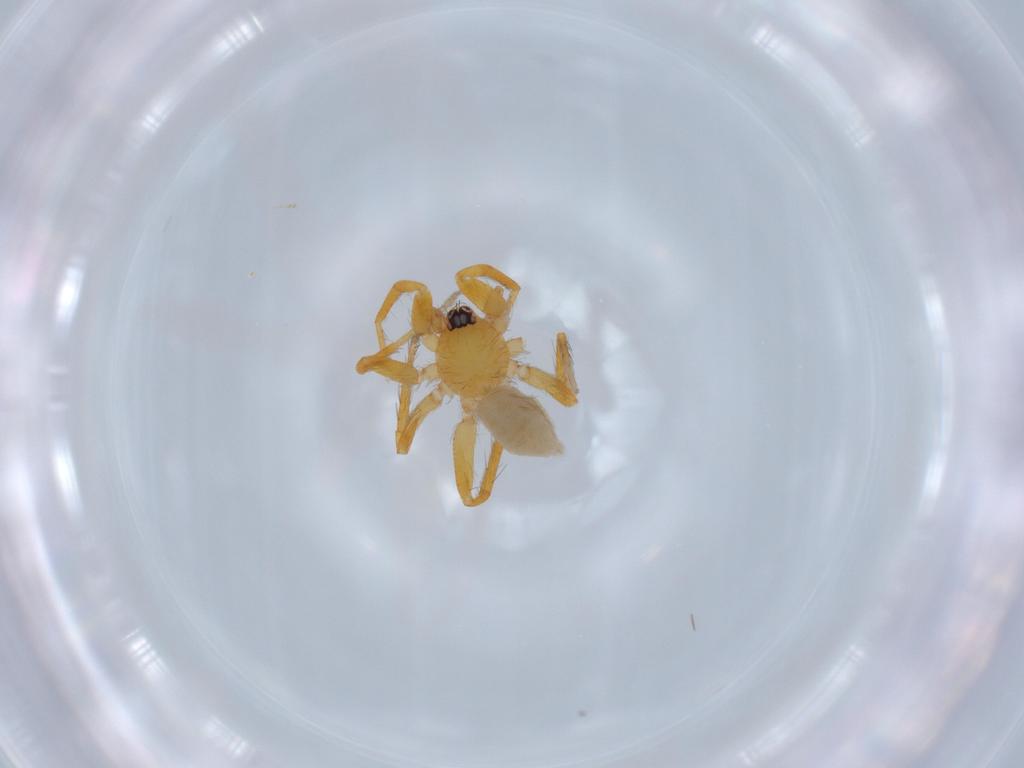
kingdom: Animalia
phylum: Arthropoda
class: Arachnida
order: Araneae
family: Oonopidae
